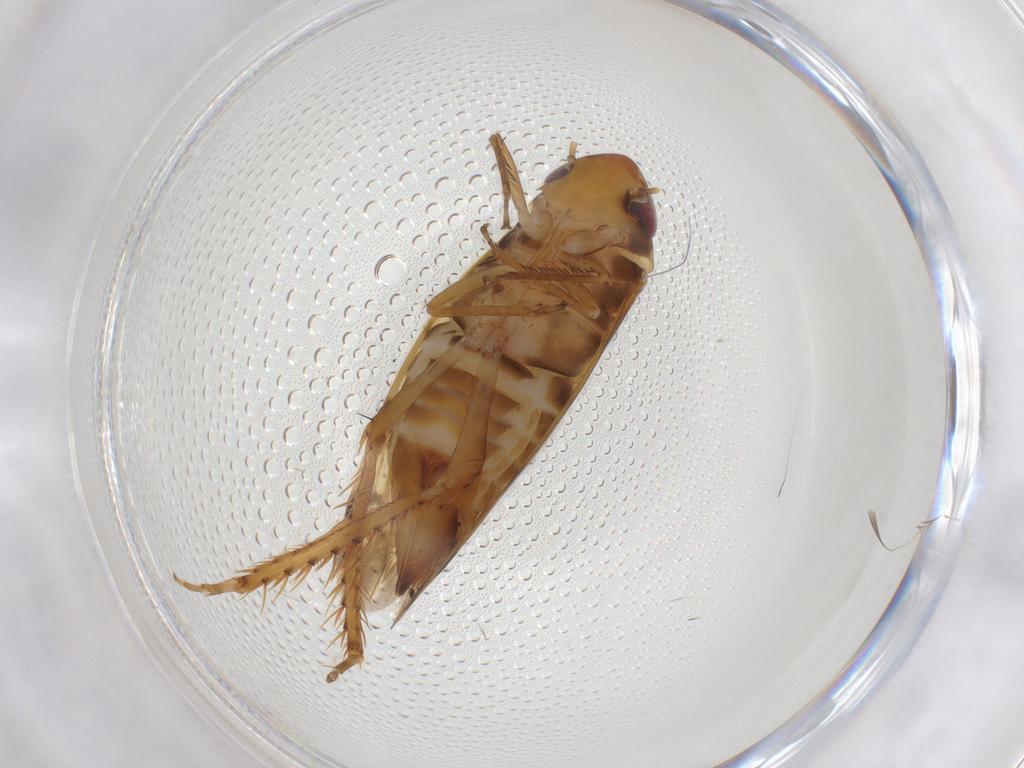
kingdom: Animalia
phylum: Arthropoda
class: Insecta
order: Hemiptera
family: Cicadellidae
